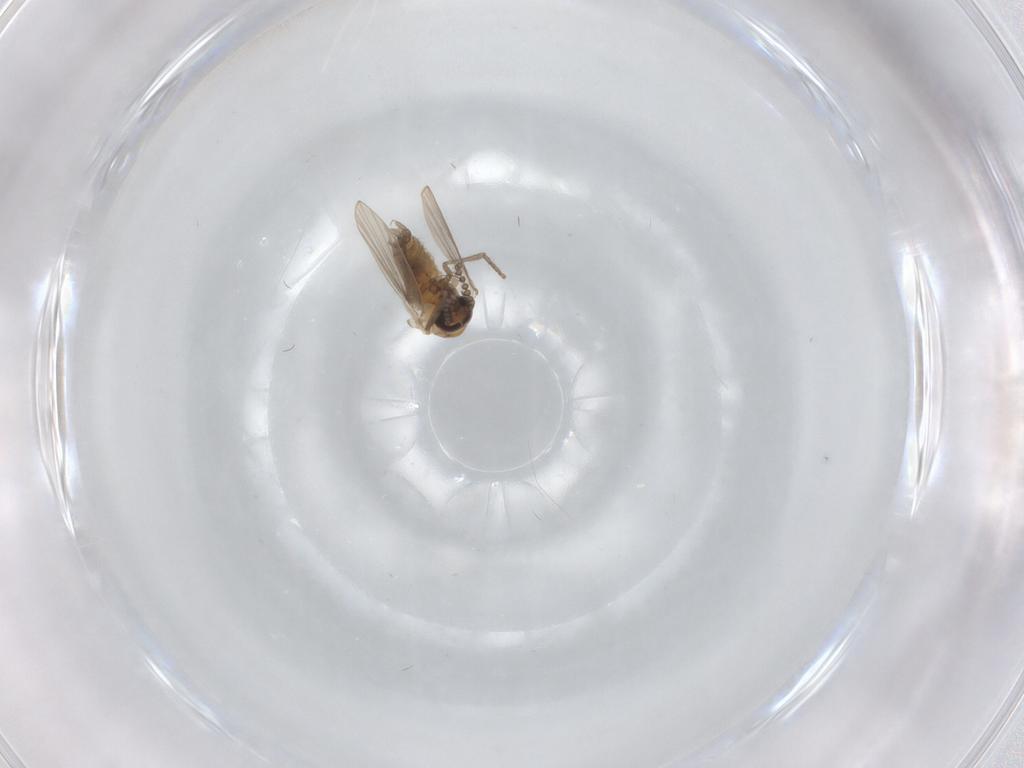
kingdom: Animalia
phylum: Arthropoda
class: Insecta
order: Diptera
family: Psychodidae
